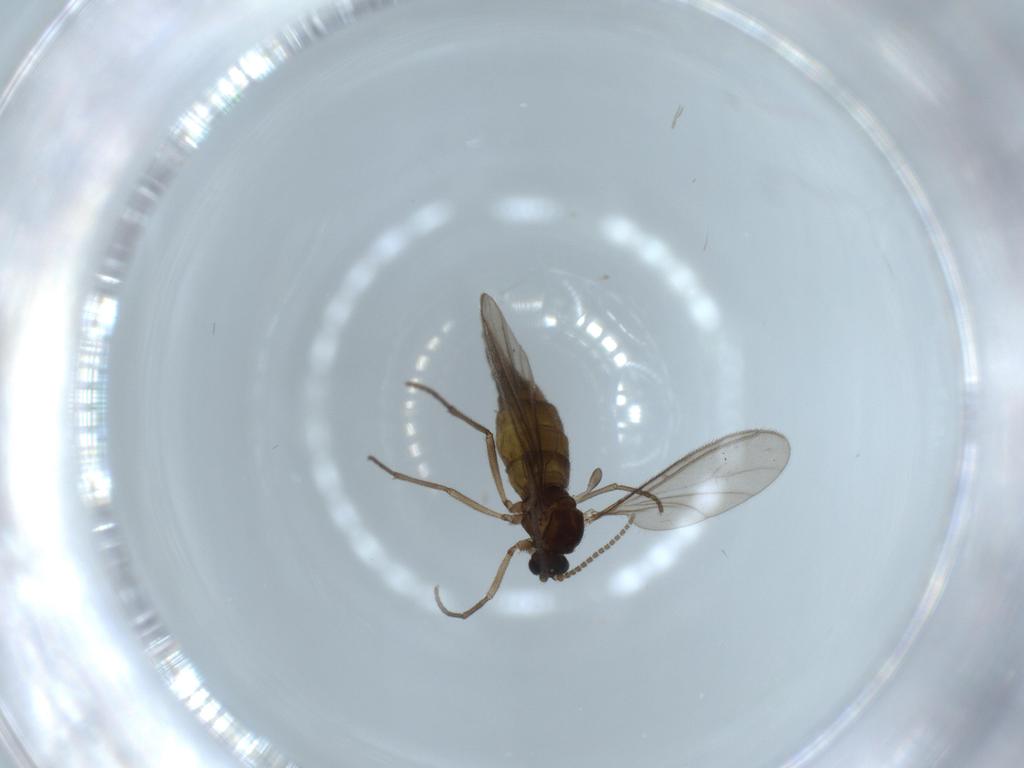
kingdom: Animalia
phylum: Arthropoda
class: Insecta
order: Diptera
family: Sciaridae
